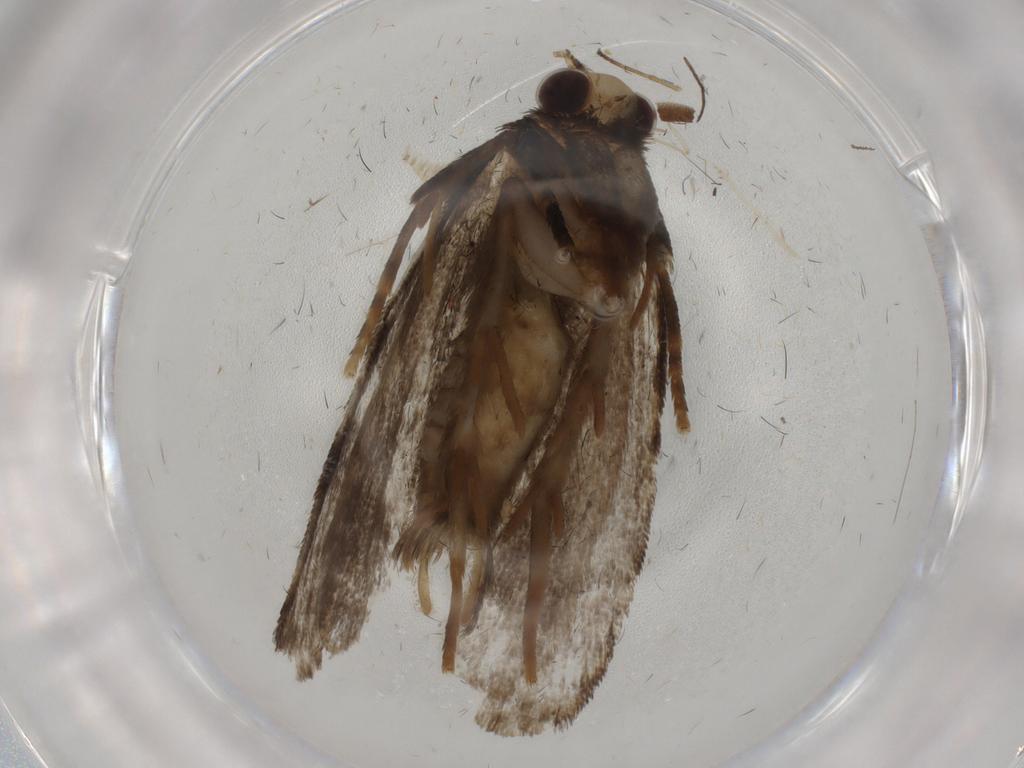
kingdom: Animalia
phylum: Arthropoda
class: Insecta
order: Lepidoptera
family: Tineidae
